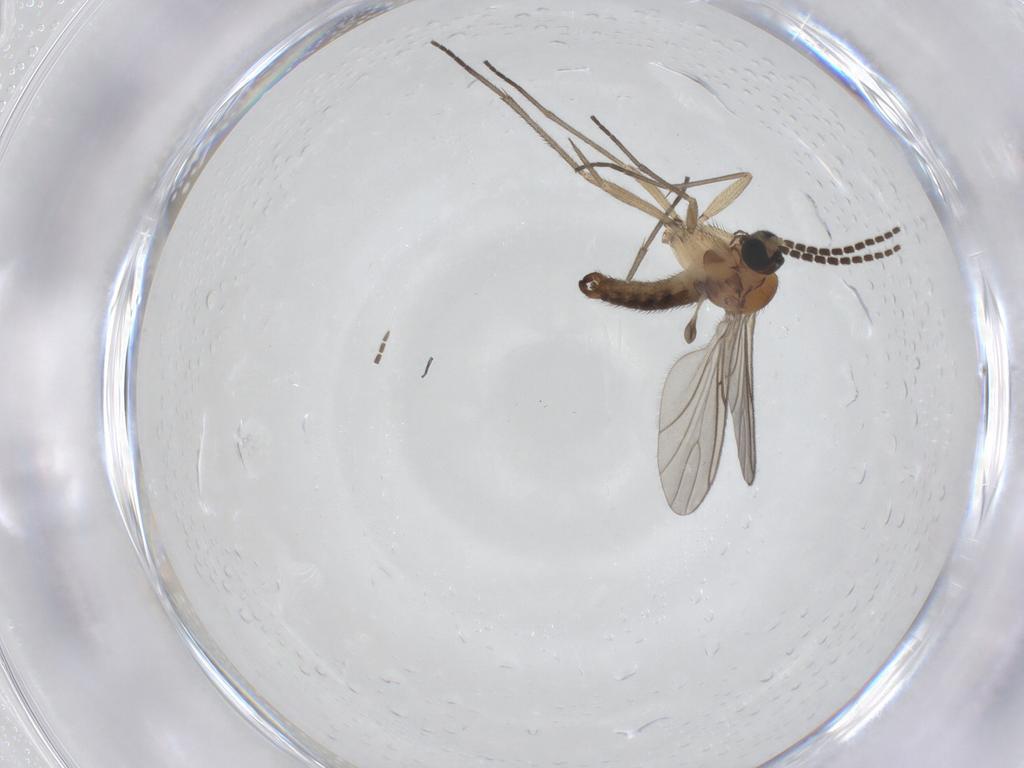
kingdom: Animalia
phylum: Arthropoda
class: Insecta
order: Diptera
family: Sciaridae
